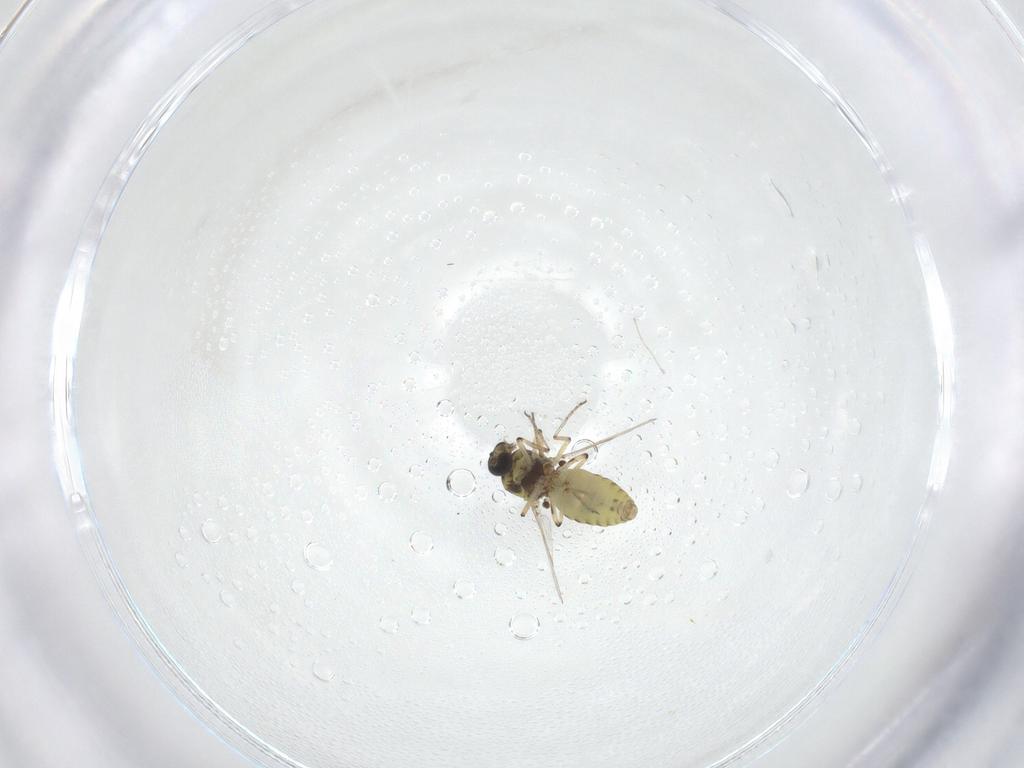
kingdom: Animalia
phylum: Arthropoda
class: Insecta
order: Diptera
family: Ceratopogonidae
